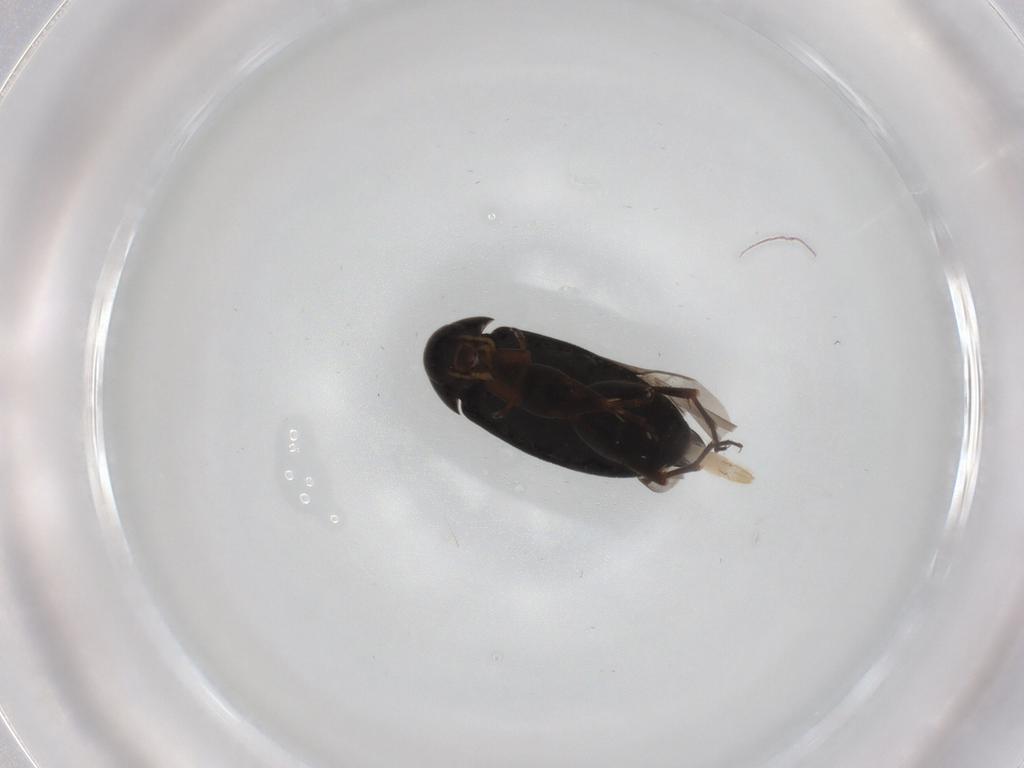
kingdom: Animalia
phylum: Arthropoda
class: Insecta
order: Coleoptera
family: Scraptiidae
